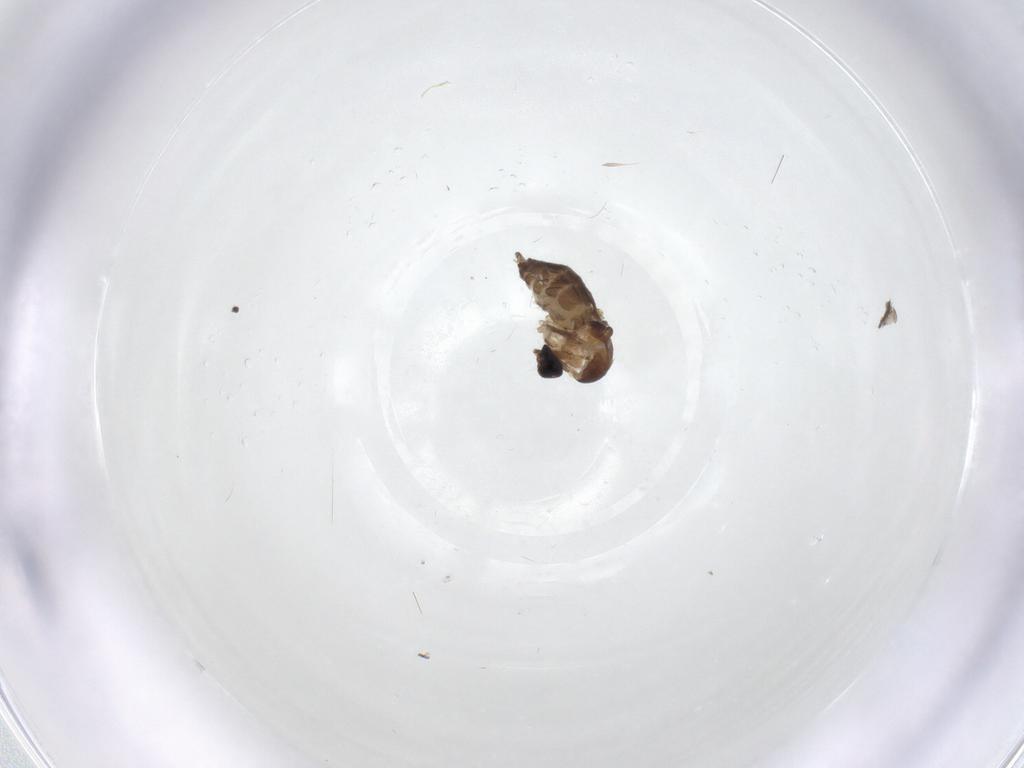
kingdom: Animalia
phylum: Arthropoda
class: Insecta
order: Diptera
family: Ceratopogonidae
